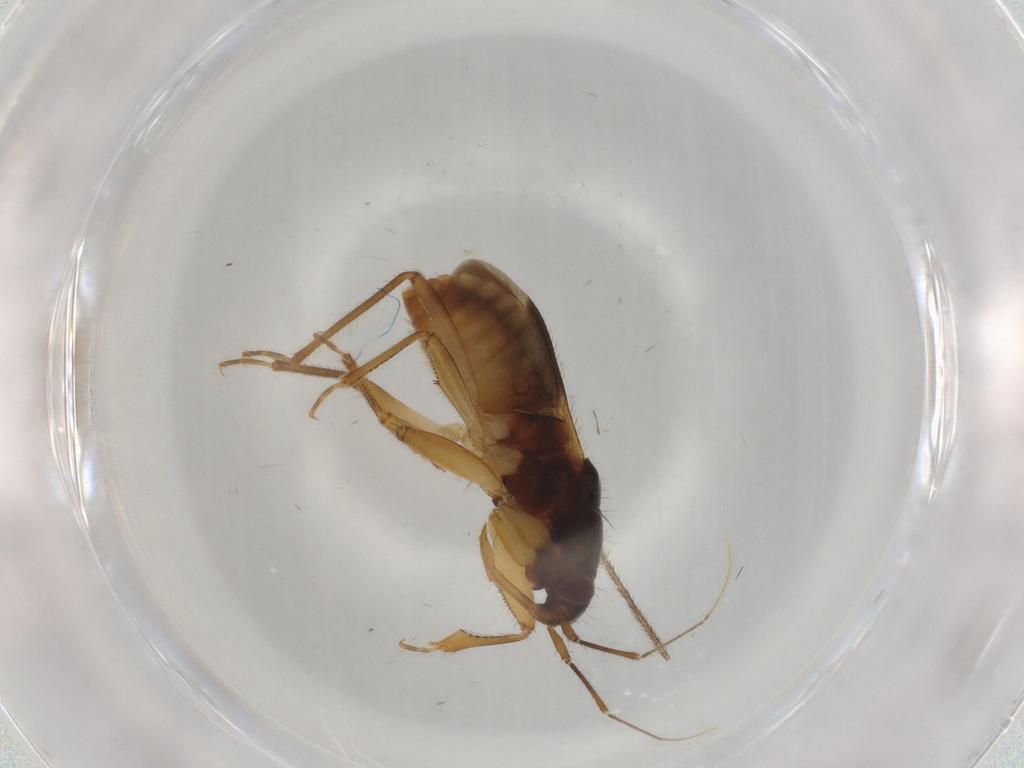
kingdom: Animalia
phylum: Arthropoda
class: Insecta
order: Hemiptera
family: Nabidae
